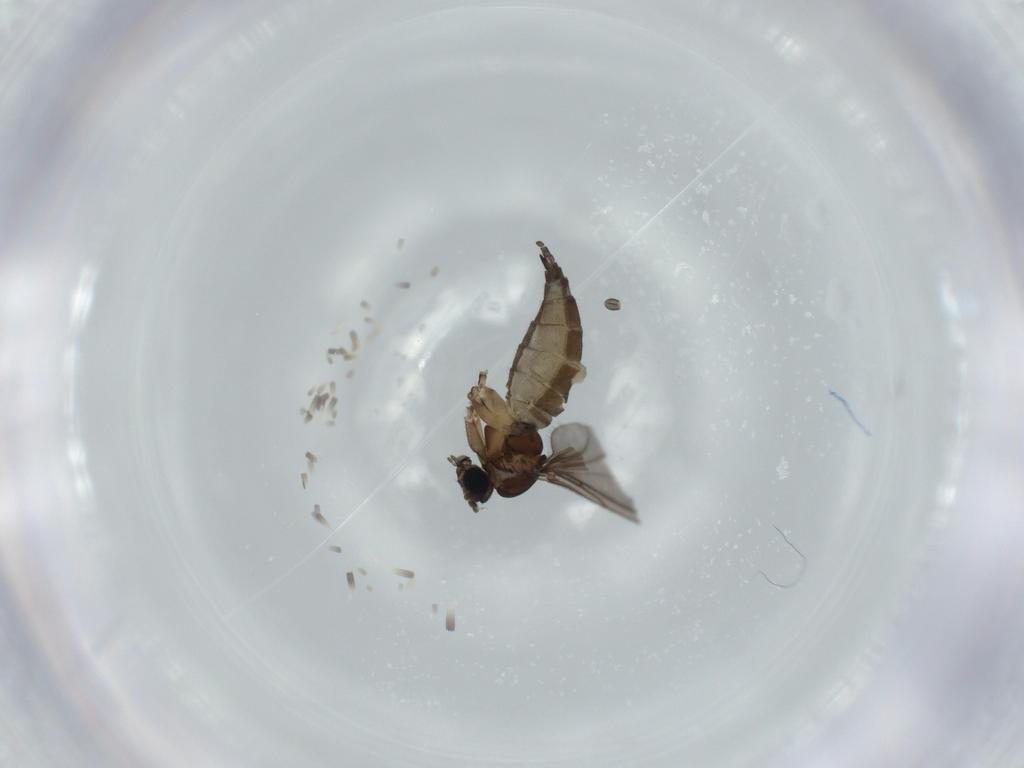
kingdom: Animalia
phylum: Arthropoda
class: Insecta
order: Diptera
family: Sciaridae
